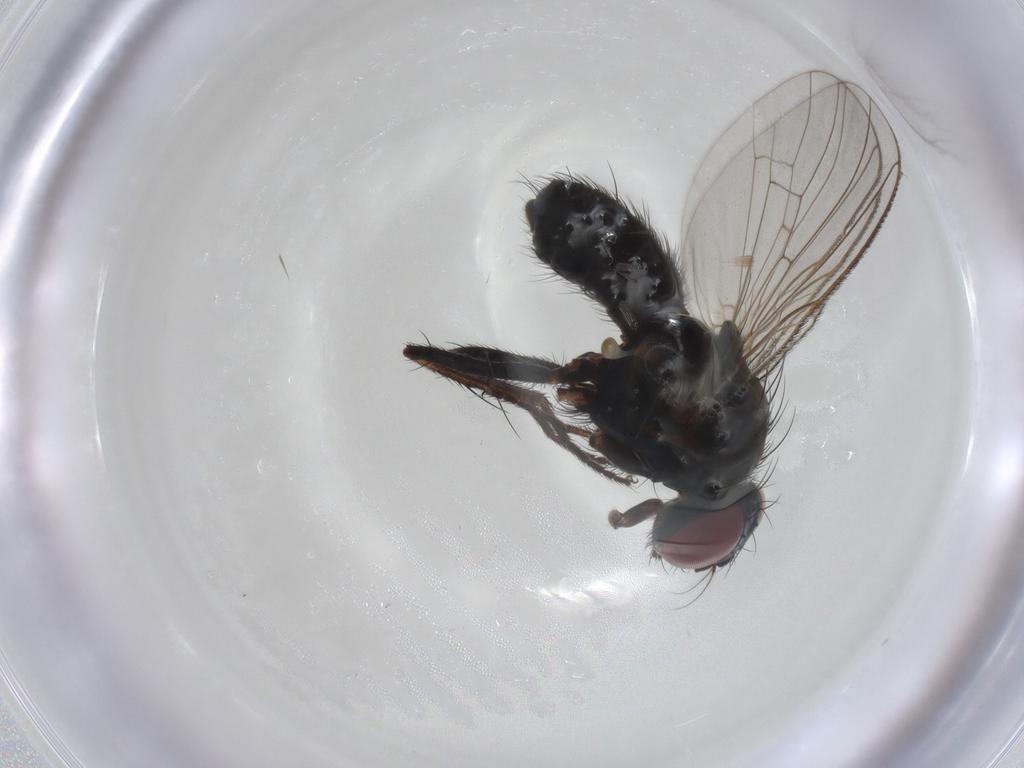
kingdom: Animalia
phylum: Arthropoda
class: Insecta
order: Diptera
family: Muscidae
